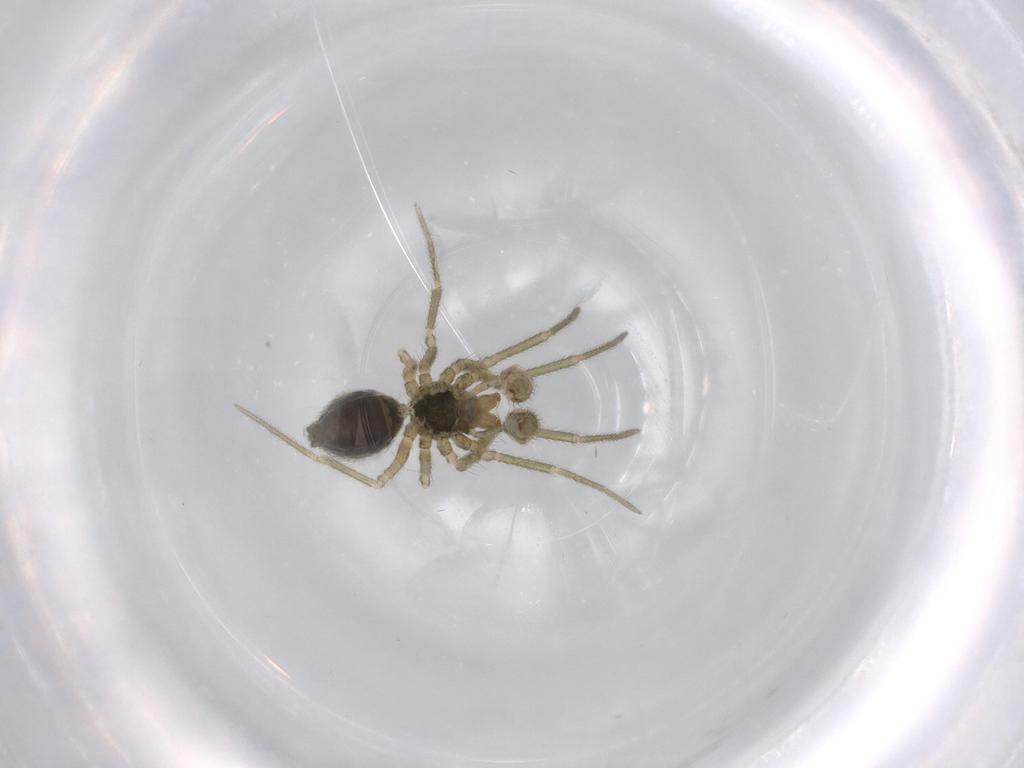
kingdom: Animalia
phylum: Arthropoda
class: Arachnida
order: Araneae
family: Linyphiidae
